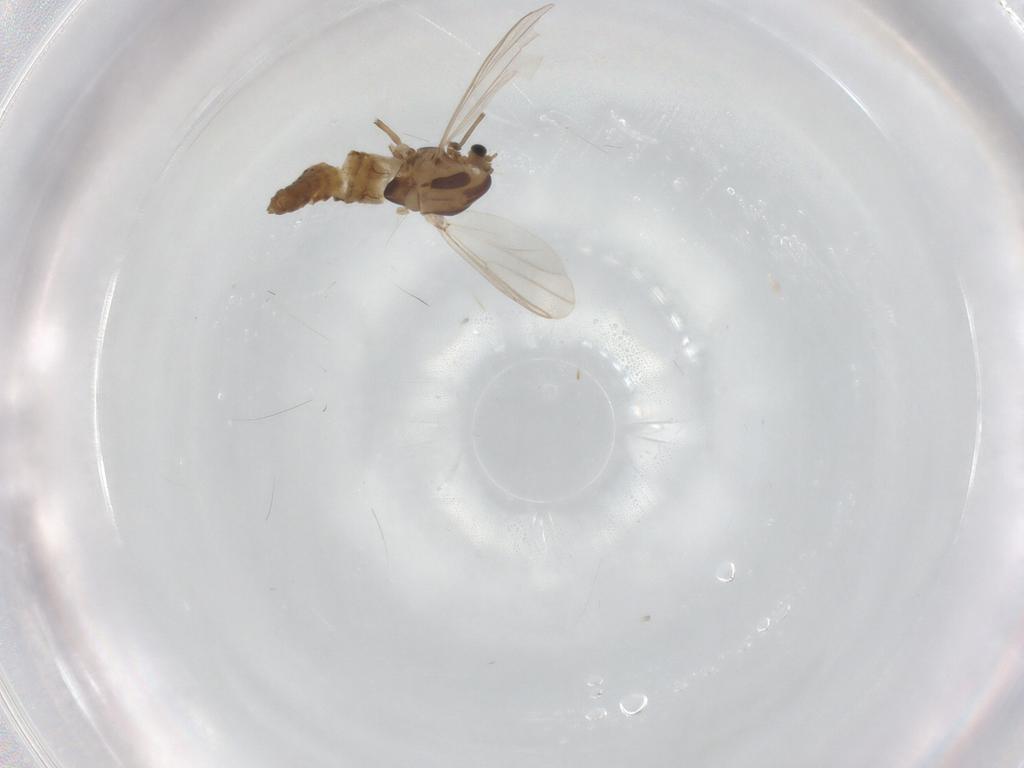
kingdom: Animalia
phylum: Arthropoda
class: Insecta
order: Diptera
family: Chironomidae
